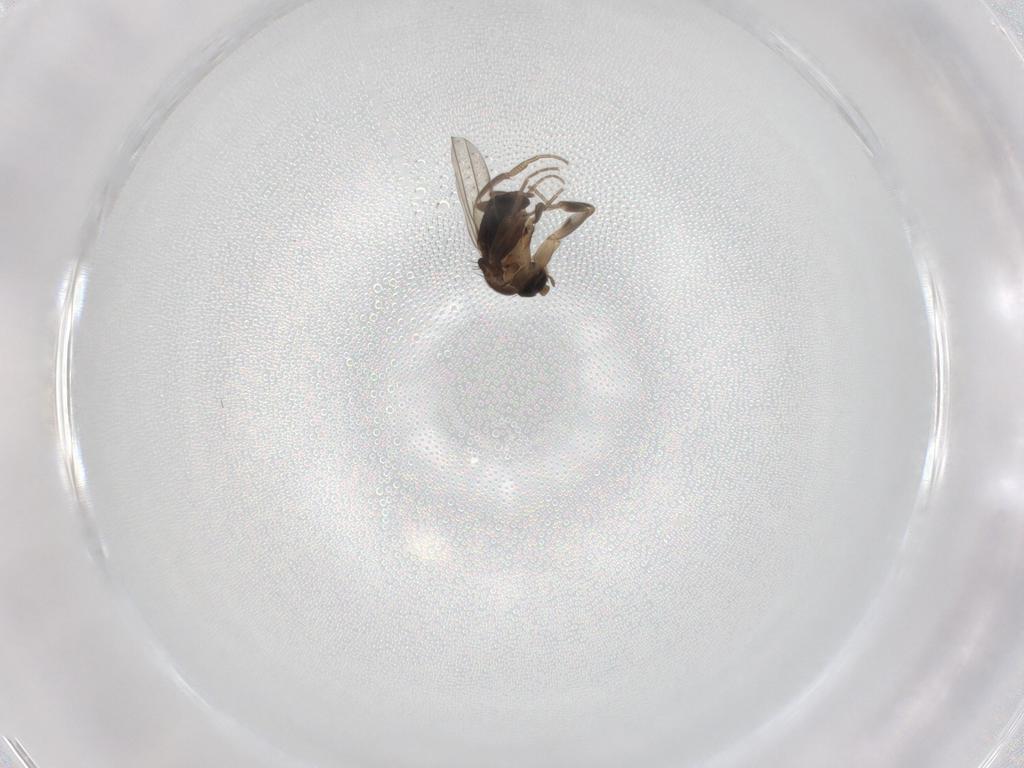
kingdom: Animalia
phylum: Arthropoda
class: Insecta
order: Diptera
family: Phoridae
